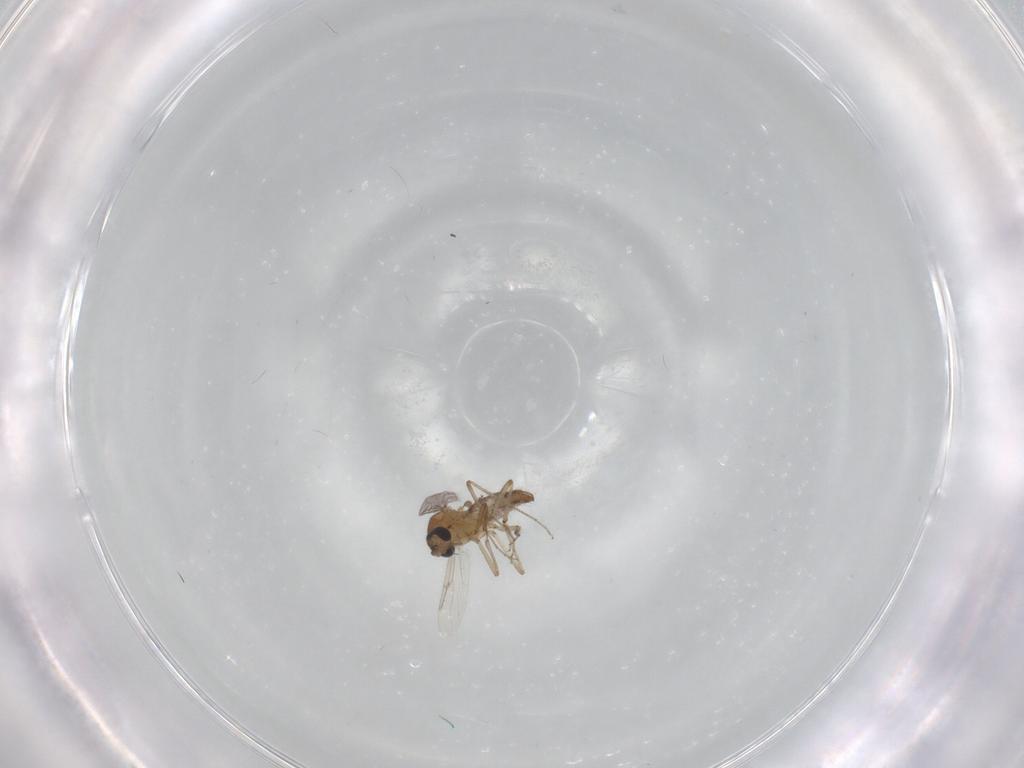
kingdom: Animalia
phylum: Arthropoda
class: Insecta
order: Diptera
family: Ceratopogonidae
